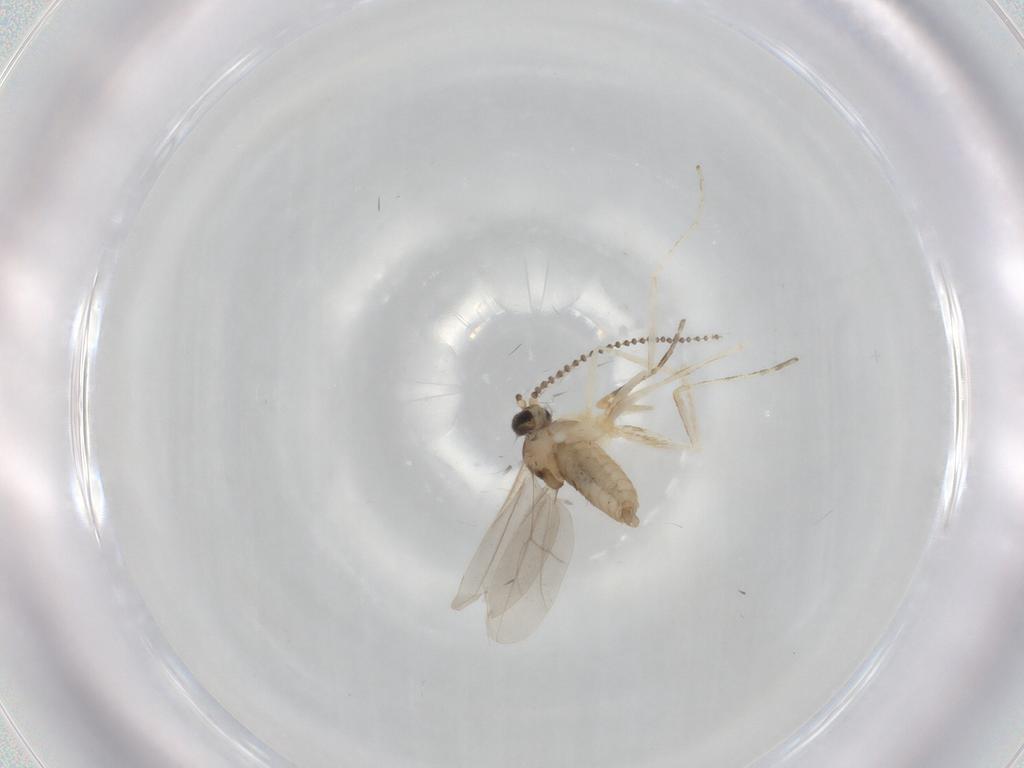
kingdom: Animalia
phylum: Arthropoda
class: Insecta
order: Diptera
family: Ceratopogonidae
